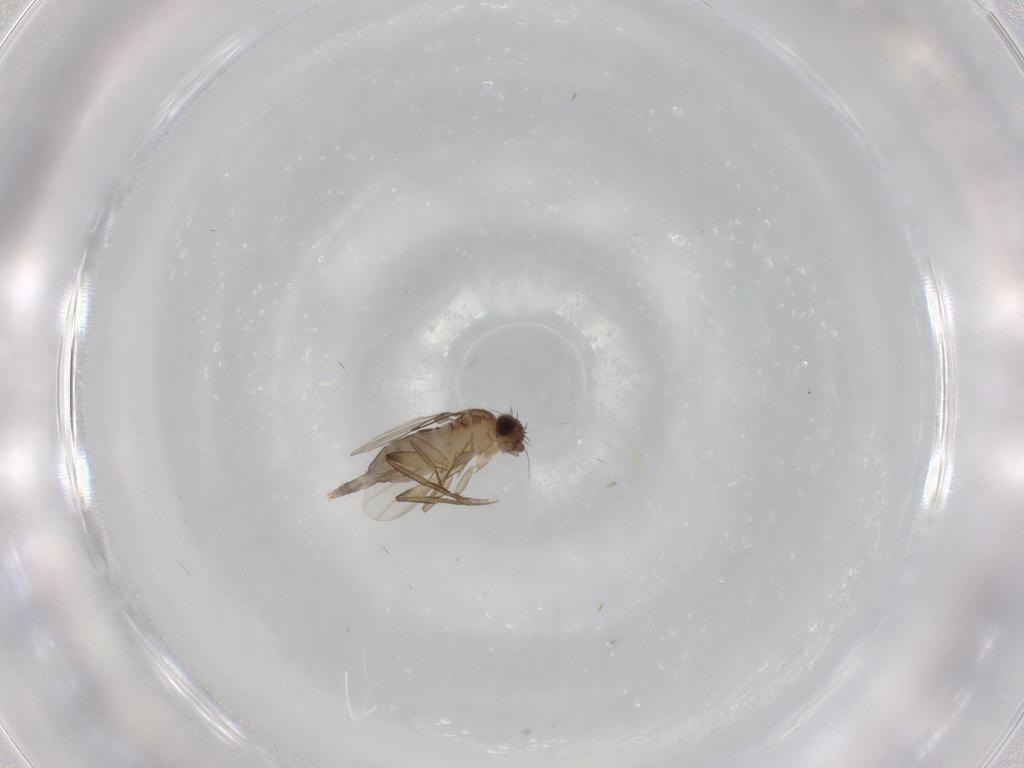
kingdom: Animalia
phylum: Arthropoda
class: Insecta
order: Diptera
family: Phoridae
